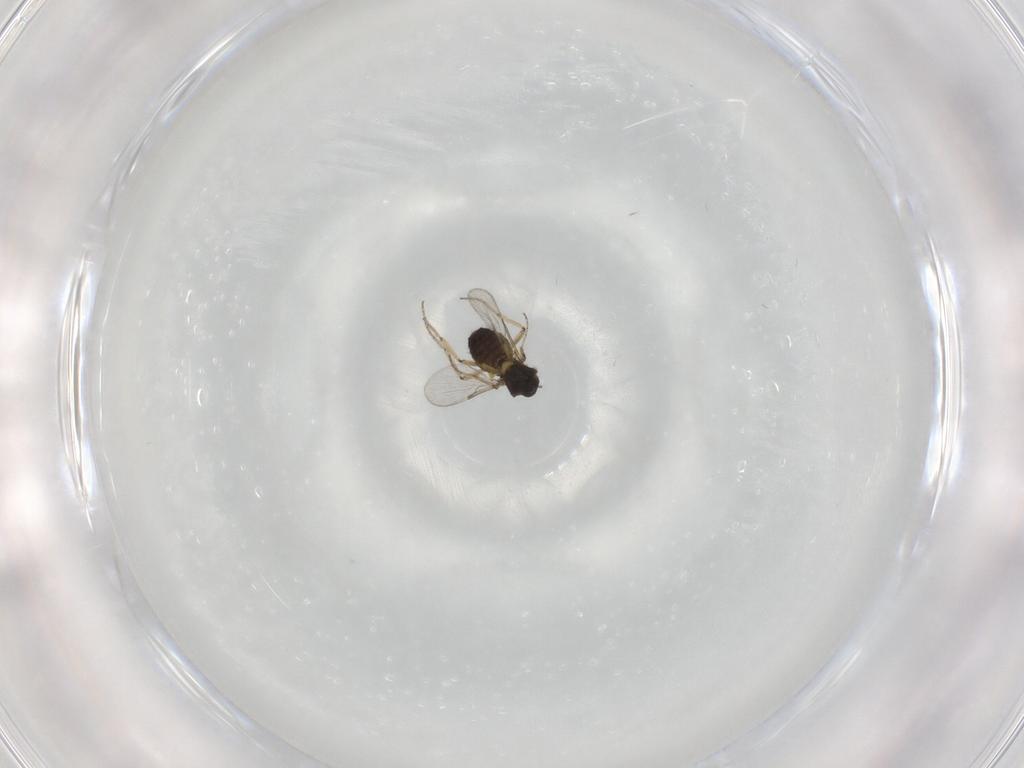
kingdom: Animalia
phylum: Arthropoda
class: Insecta
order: Diptera
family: Ceratopogonidae
